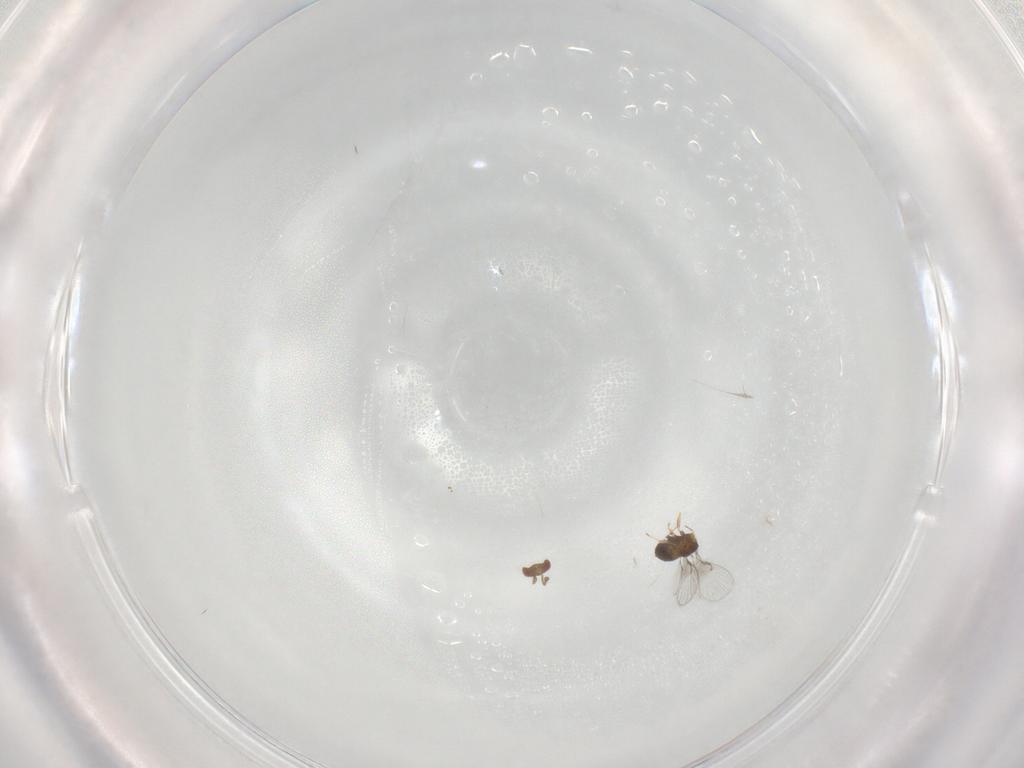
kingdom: Animalia
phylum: Arthropoda
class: Insecta
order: Hymenoptera
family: Trichogrammatidae
